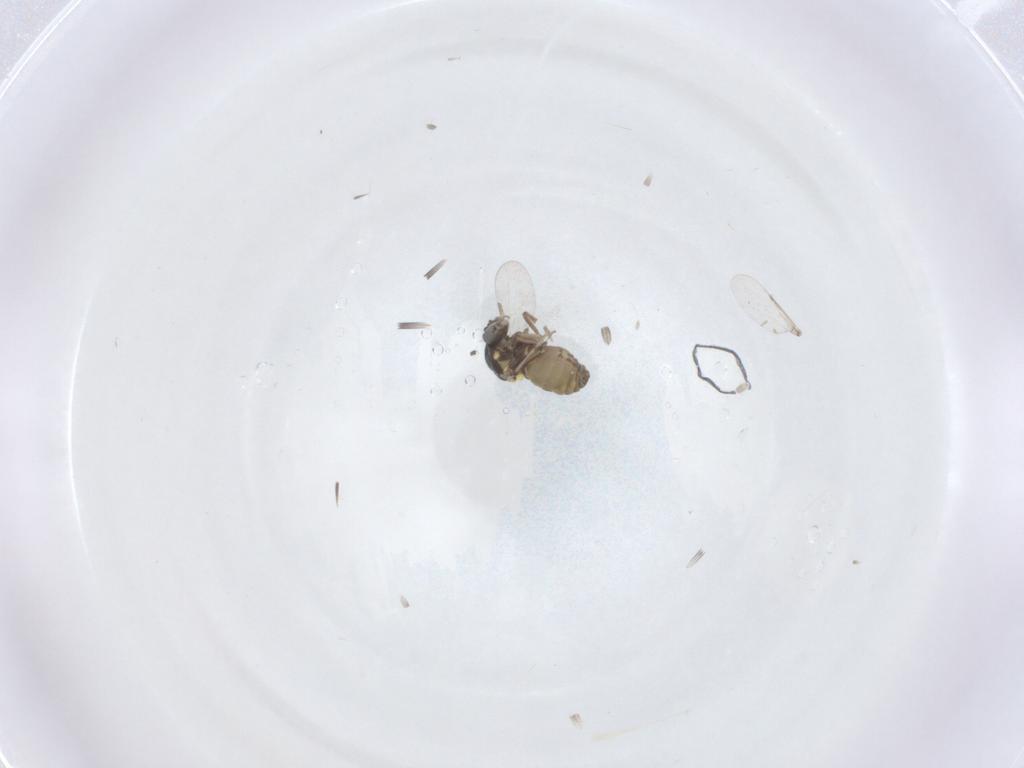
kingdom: Animalia
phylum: Arthropoda
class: Insecta
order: Diptera
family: Ceratopogonidae
